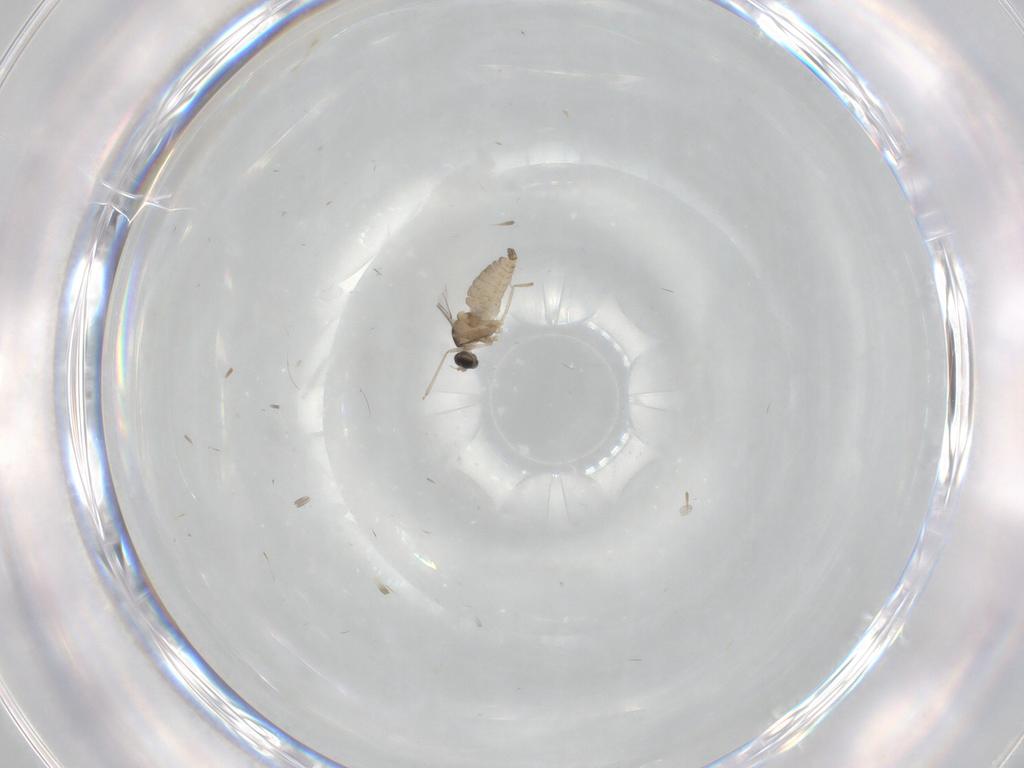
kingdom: Animalia
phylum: Arthropoda
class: Insecta
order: Diptera
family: Cecidomyiidae
